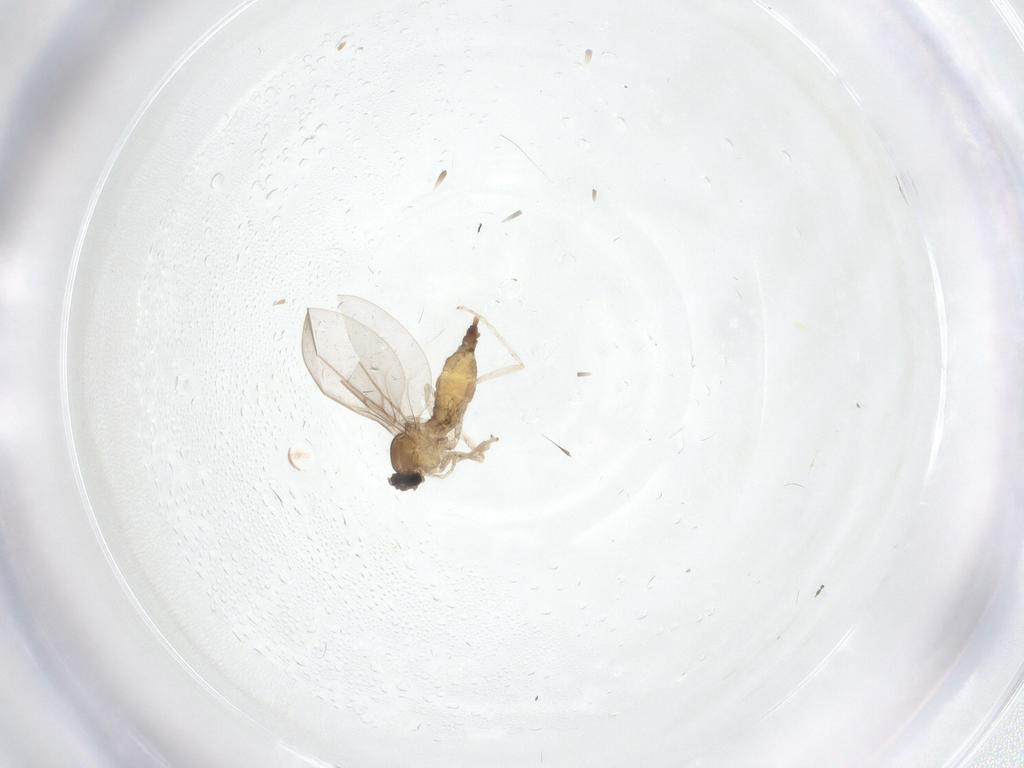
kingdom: Animalia
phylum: Arthropoda
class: Insecta
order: Diptera
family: Cecidomyiidae
